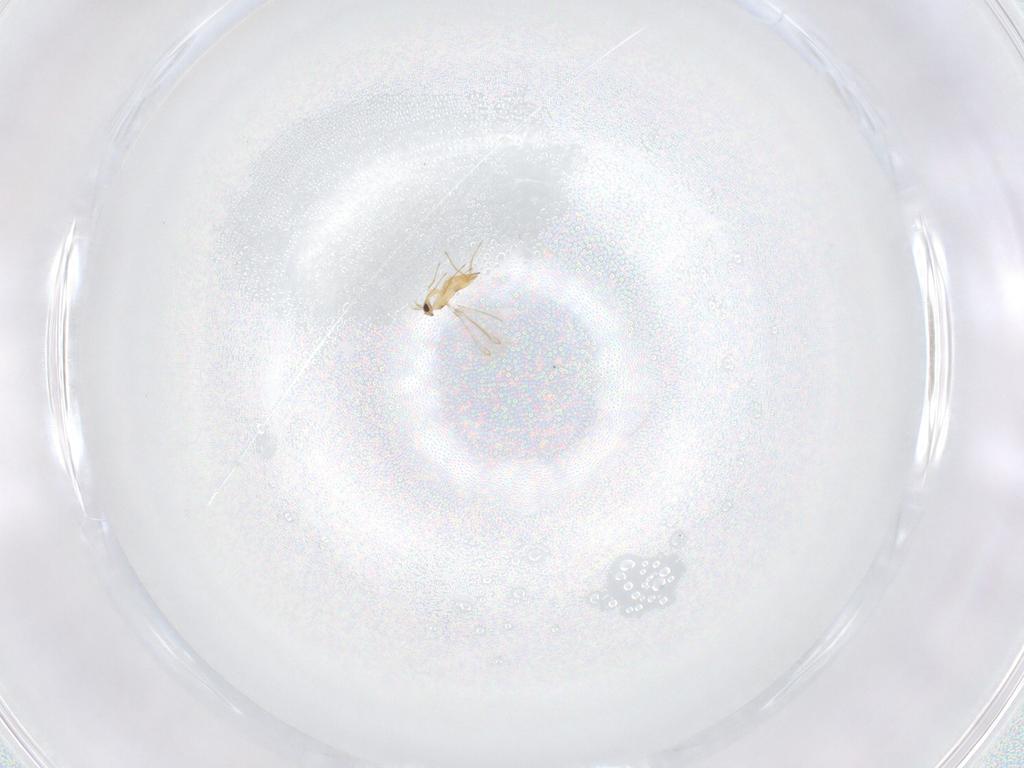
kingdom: Animalia
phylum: Arthropoda
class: Insecta
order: Hymenoptera
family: Mymaridae
